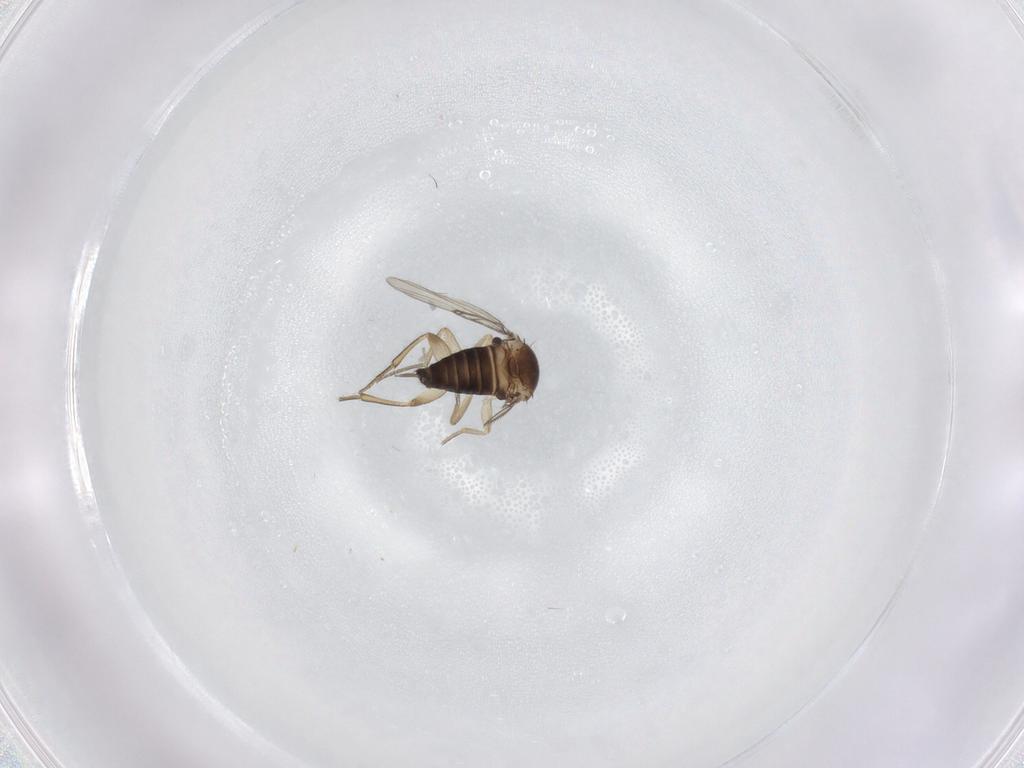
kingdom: Animalia
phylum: Arthropoda
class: Insecta
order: Diptera
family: Cecidomyiidae
